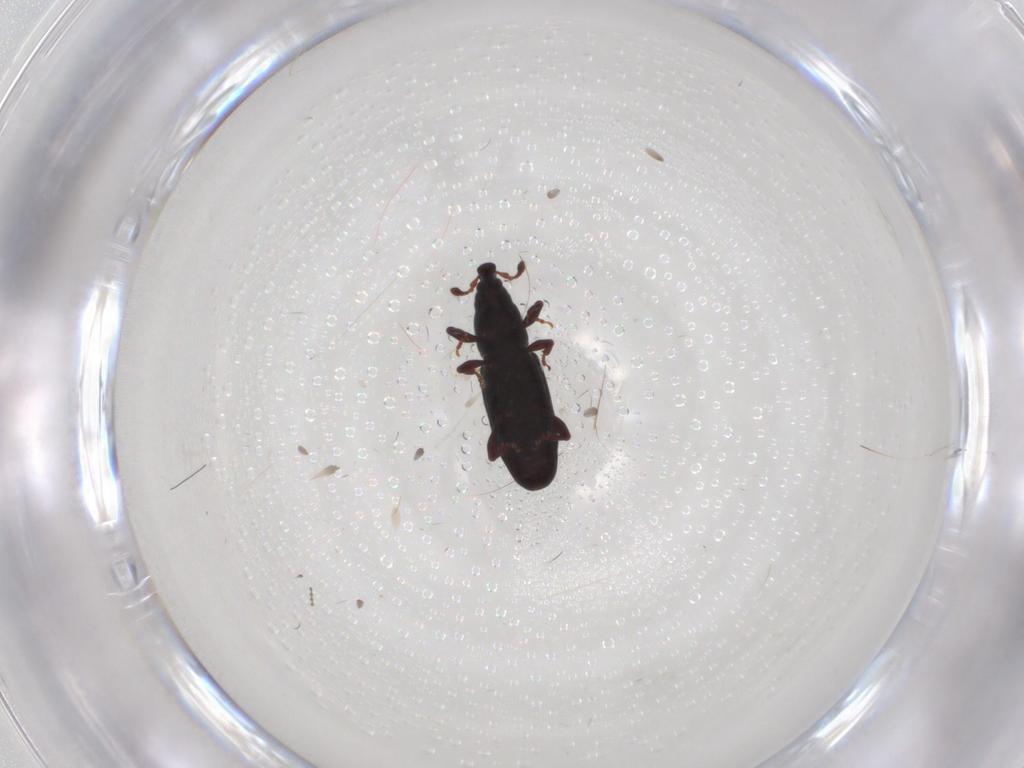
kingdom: Animalia
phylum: Arthropoda
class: Insecta
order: Coleoptera
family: Curculionidae
